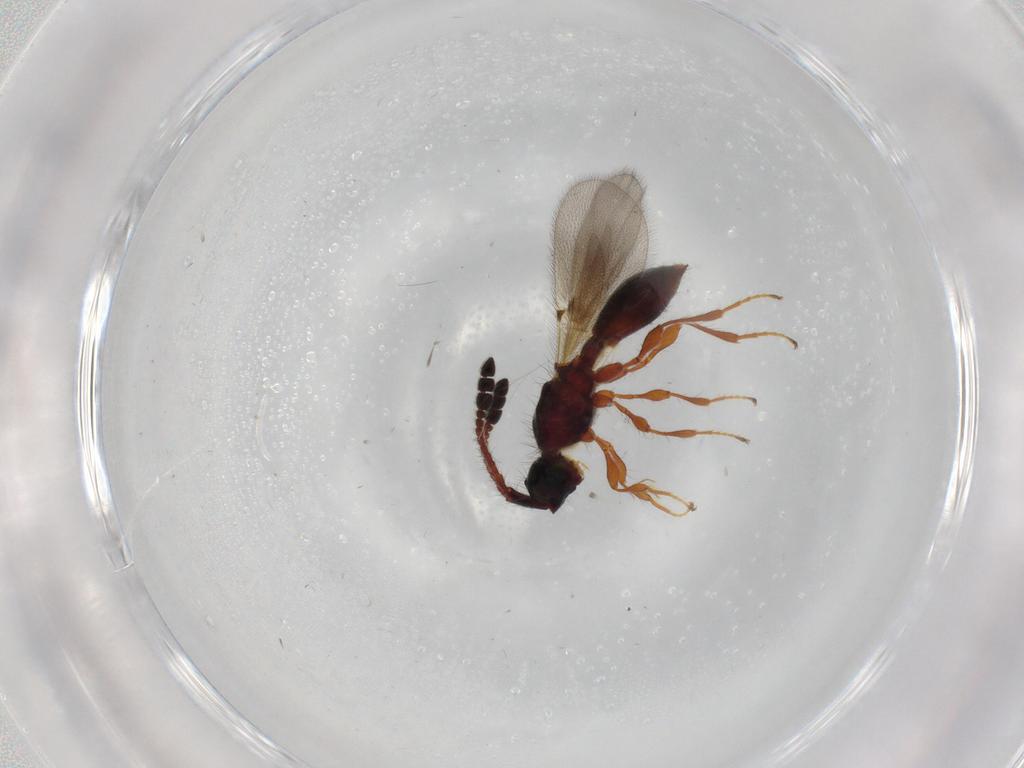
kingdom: Animalia
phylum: Arthropoda
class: Insecta
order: Hymenoptera
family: Diapriidae
